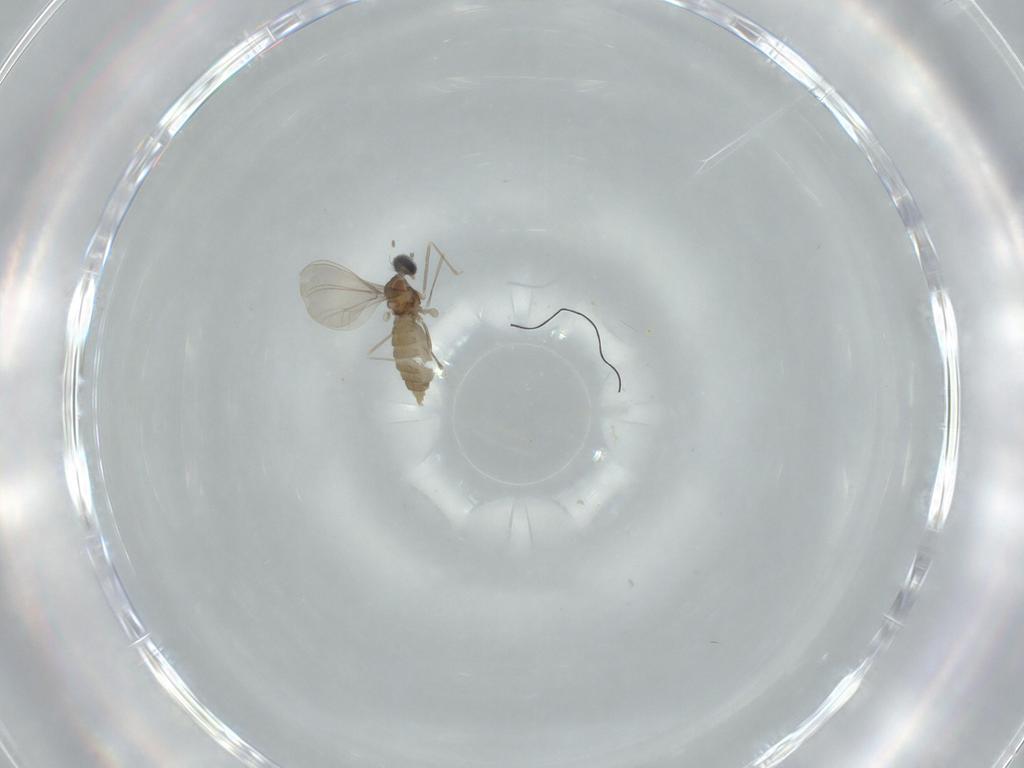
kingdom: Animalia
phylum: Arthropoda
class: Insecta
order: Diptera
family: Cecidomyiidae
